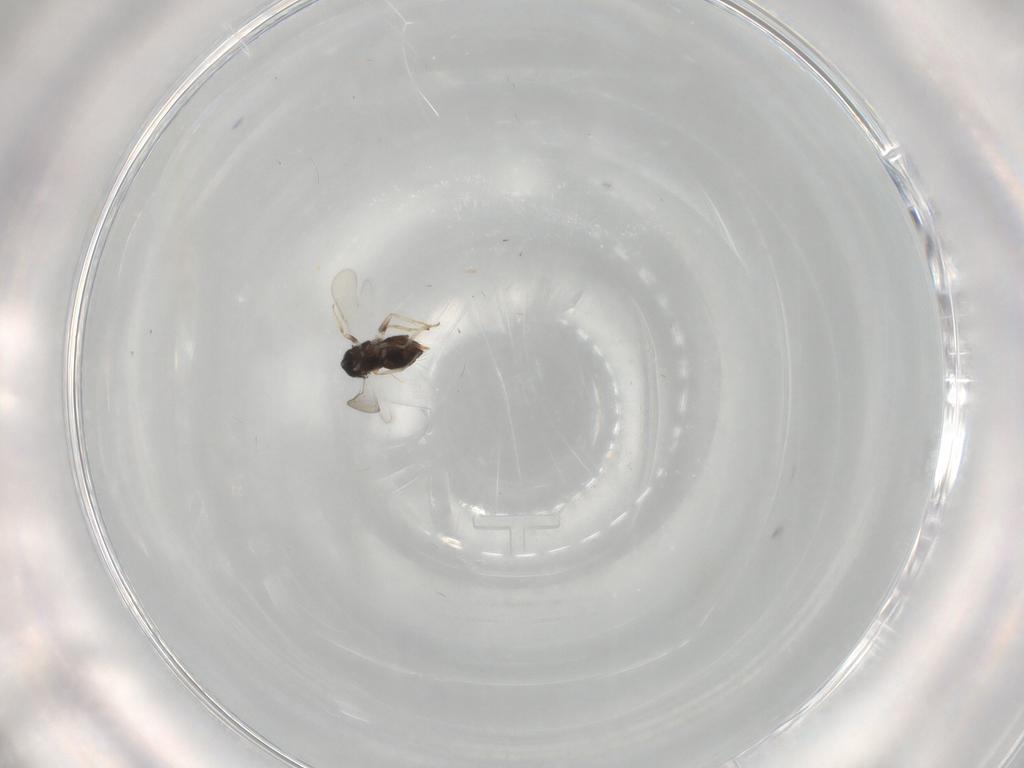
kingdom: Animalia
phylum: Arthropoda
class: Insecta
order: Hymenoptera
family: Aphelinidae
